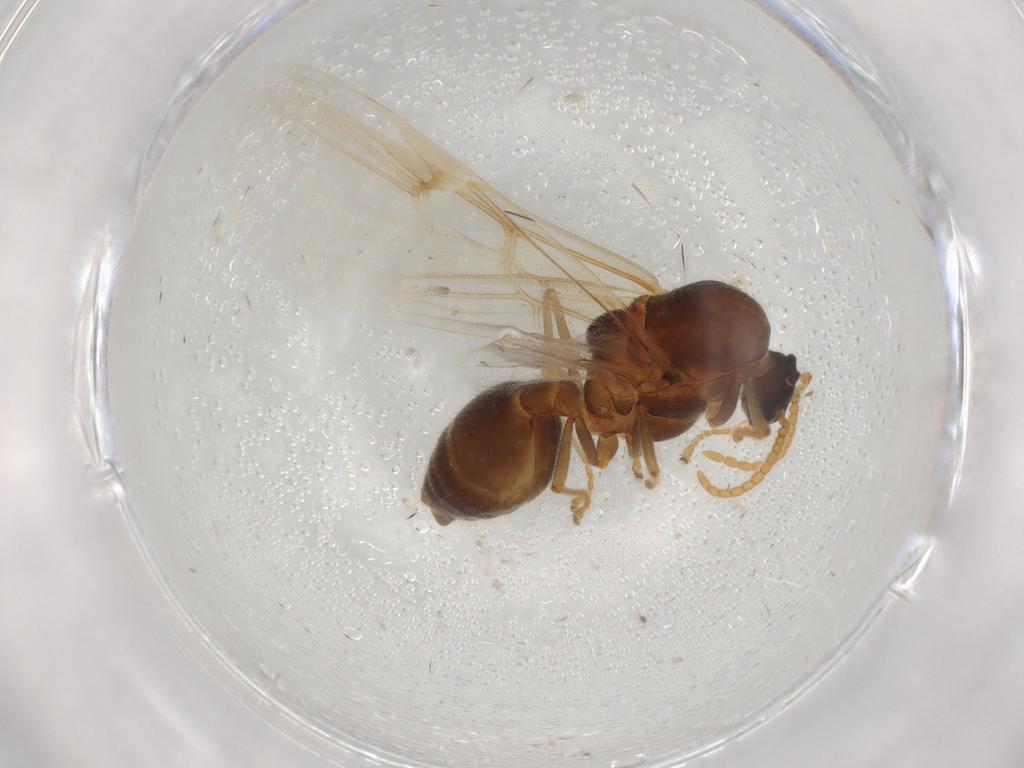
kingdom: Animalia
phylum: Arthropoda
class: Insecta
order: Hymenoptera
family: Formicidae
